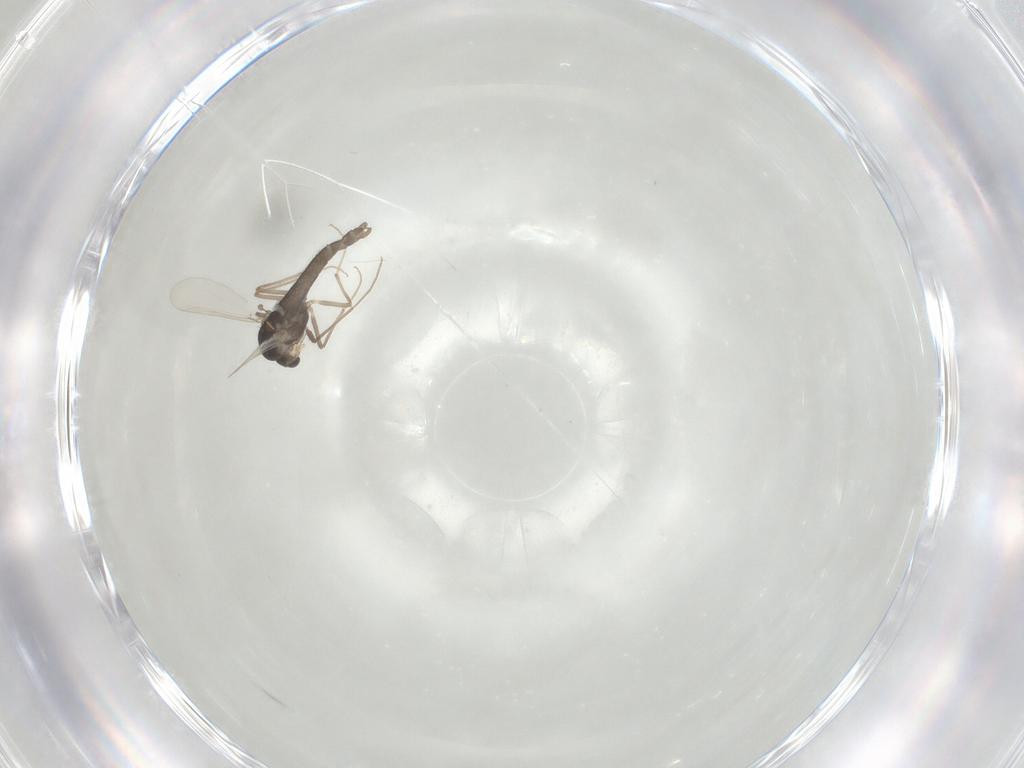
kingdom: Animalia
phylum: Arthropoda
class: Insecta
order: Diptera
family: Chironomidae
